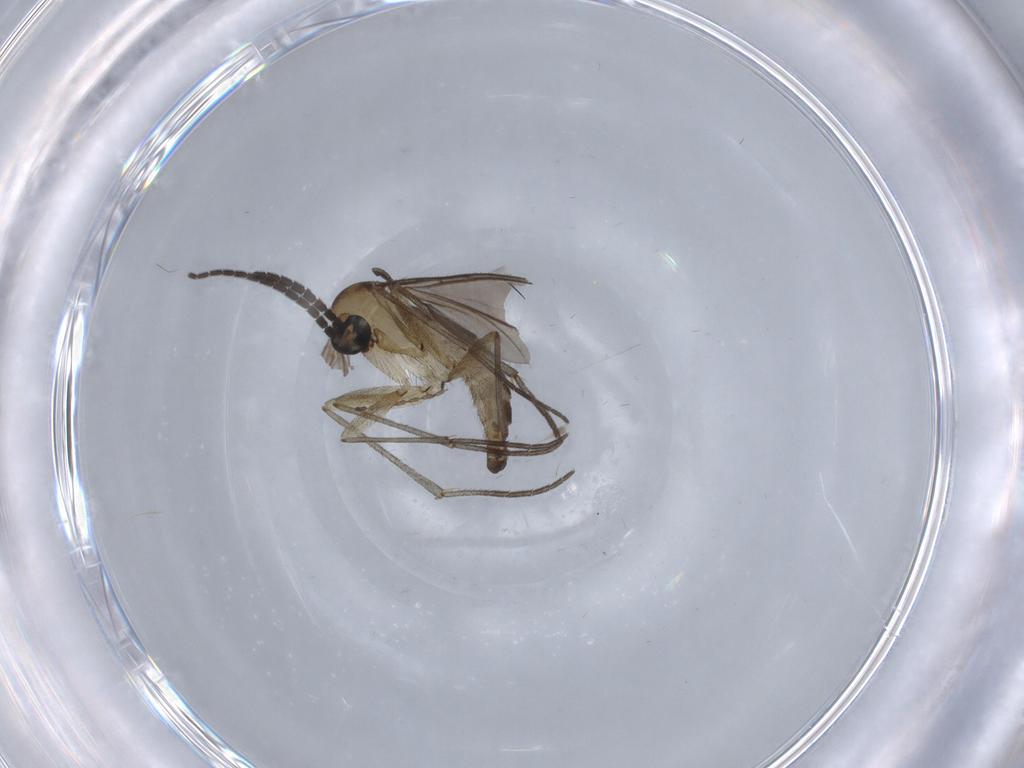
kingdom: Animalia
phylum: Arthropoda
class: Insecta
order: Diptera
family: Sciaridae
